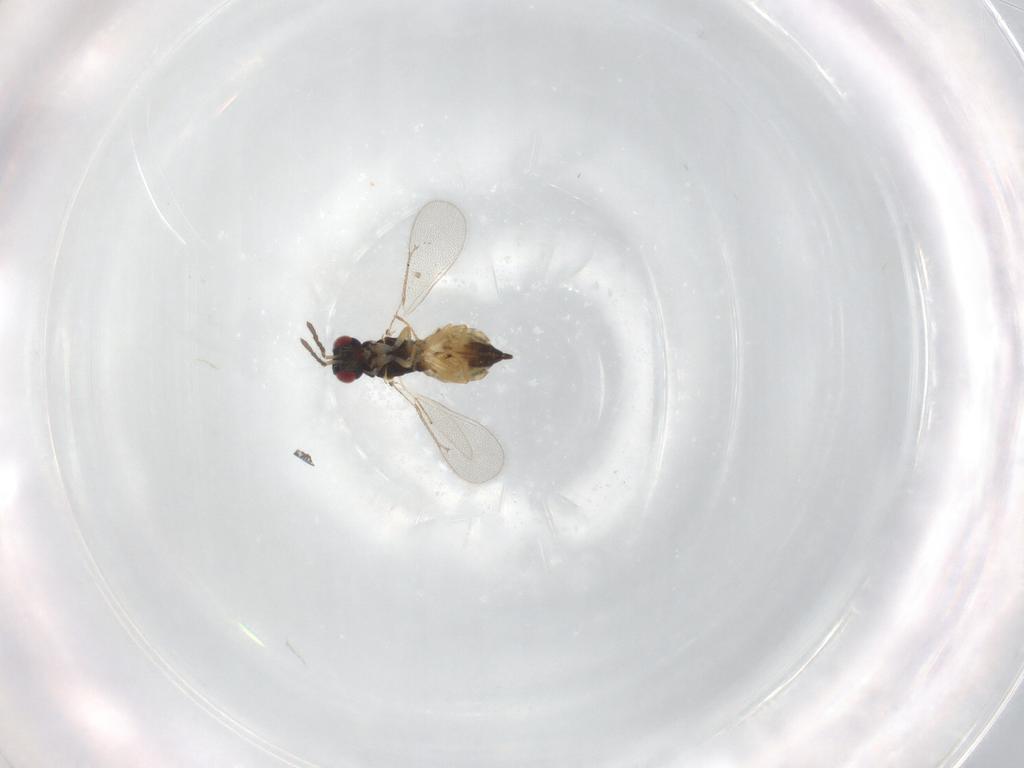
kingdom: Animalia
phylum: Arthropoda
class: Insecta
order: Hymenoptera
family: Eulophidae
